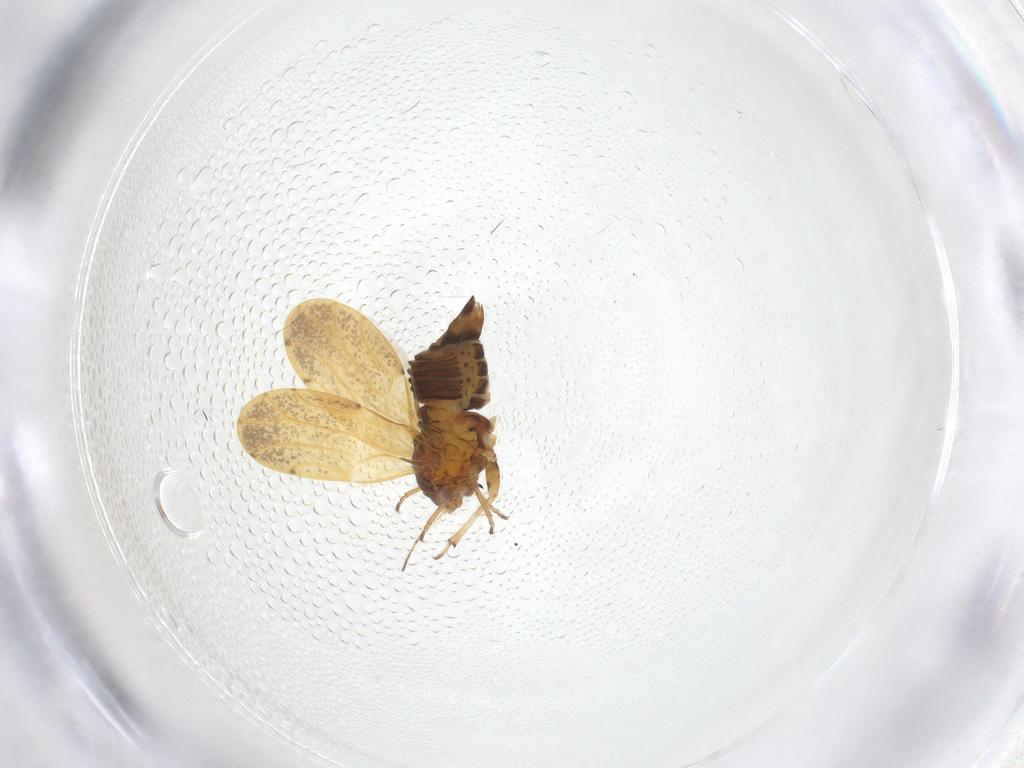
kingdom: Animalia
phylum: Arthropoda
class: Insecta
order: Hemiptera
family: Liviidae
